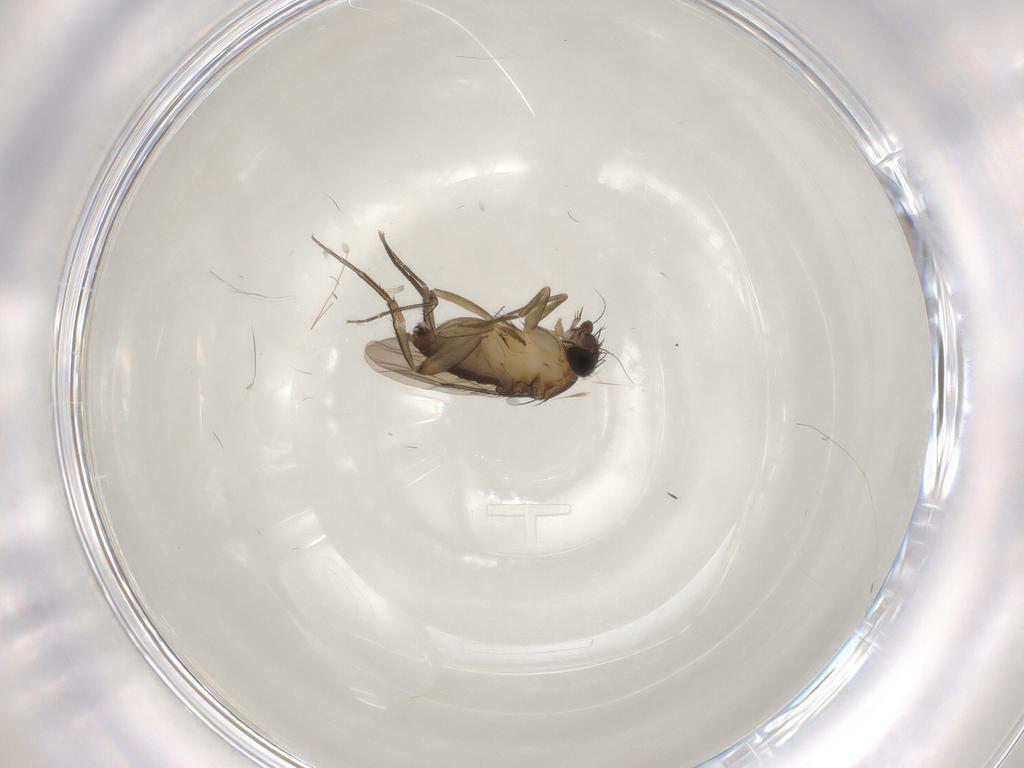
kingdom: Animalia
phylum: Arthropoda
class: Insecta
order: Diptera
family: Phoridae
